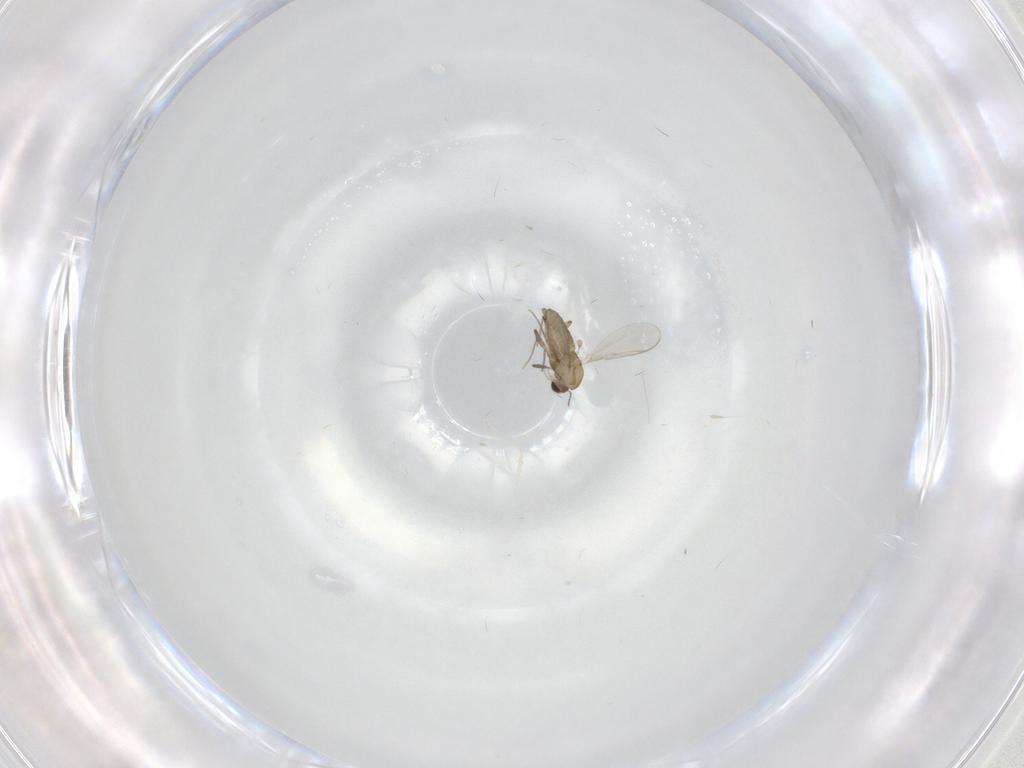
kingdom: Animalia
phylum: Arthropoda
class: Insecta
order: Diptera
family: Chironomidae
